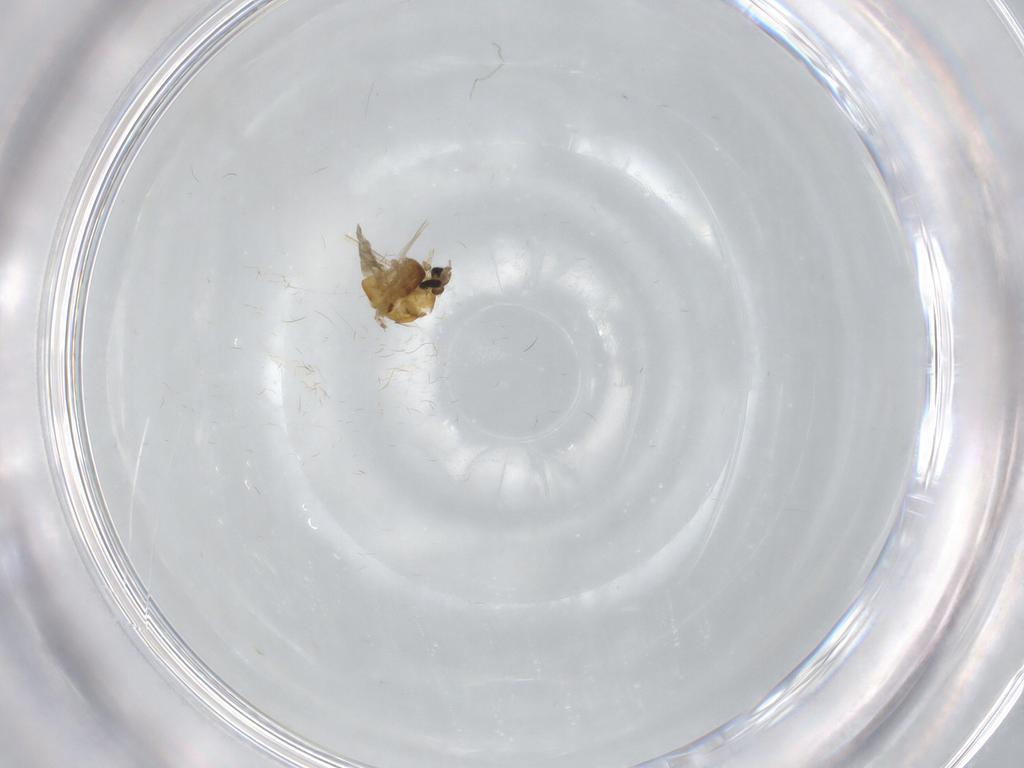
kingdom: Animalia
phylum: Arthropoda
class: Insecta
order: Diptera
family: Chironomidae
